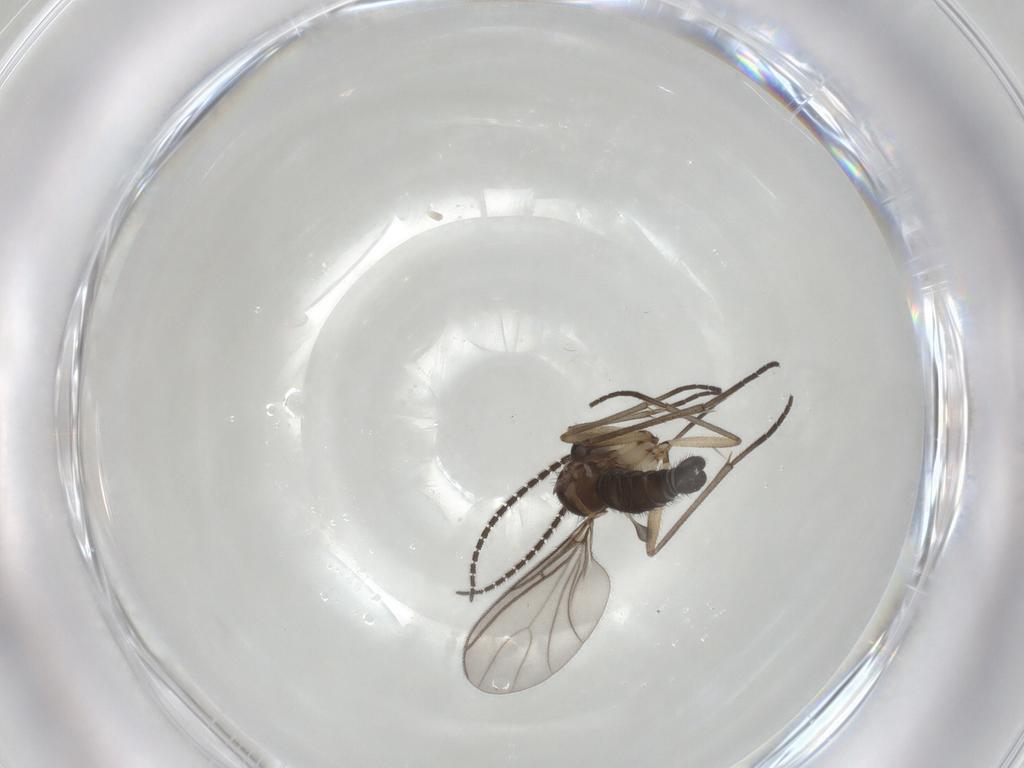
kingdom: Animalia
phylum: Arthropoda
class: Insecta
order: Diptera
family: Sciaridae
